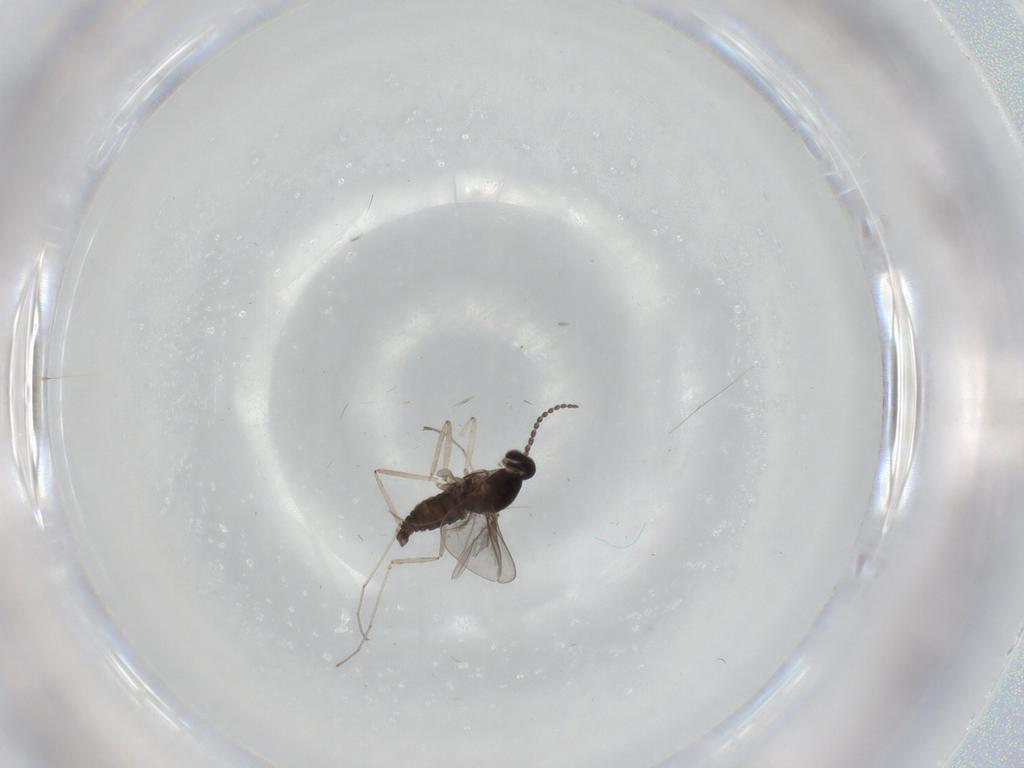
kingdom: Animalia
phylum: Arthropoda
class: Insecta
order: Diptera
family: Cecidomyiidae
